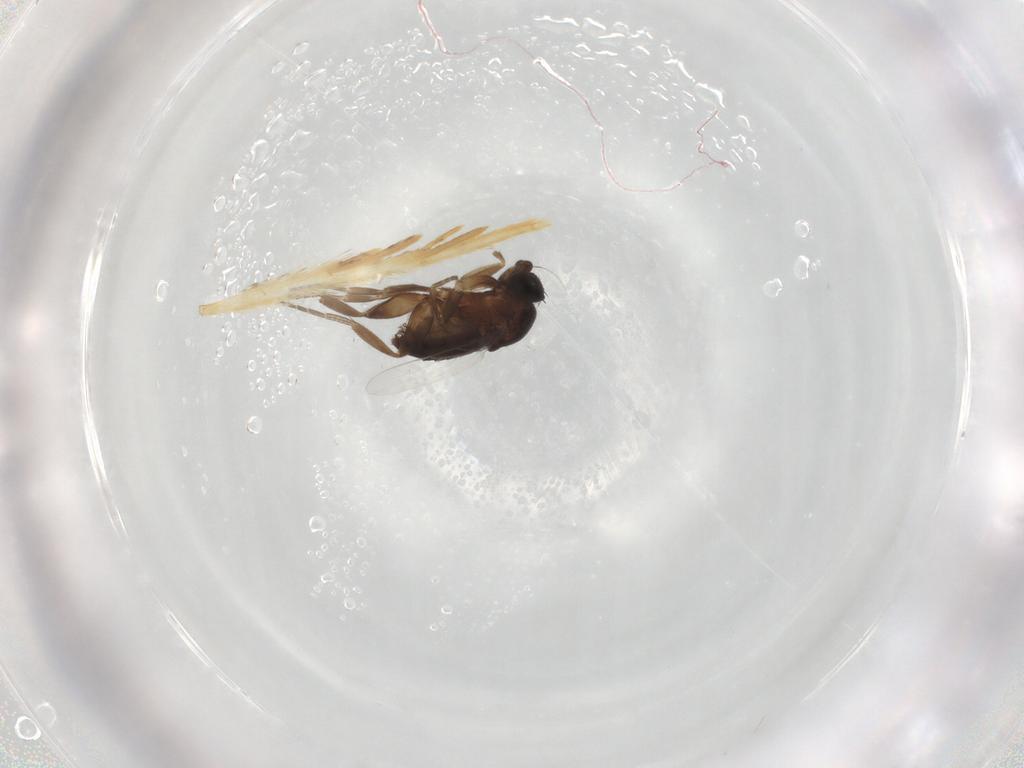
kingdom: Animalia
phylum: Arthropoda
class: Insecta
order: Diptera
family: Phoridae
